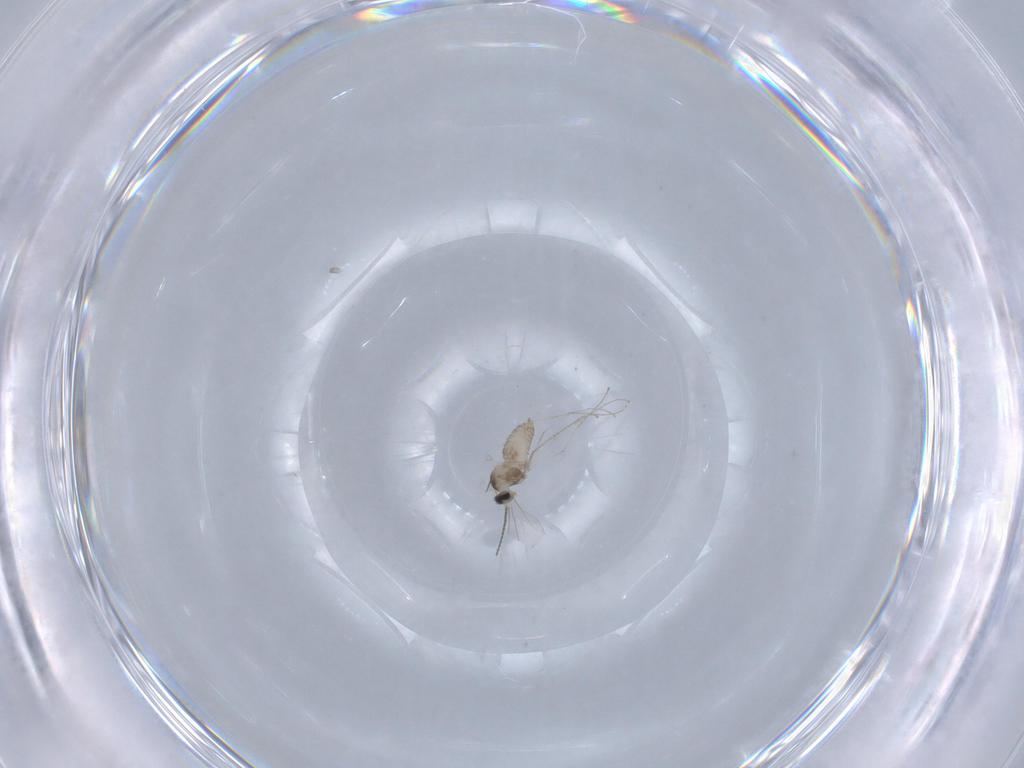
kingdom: Animalia
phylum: Arthropoda
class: Insecta
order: Diptera
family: Cecidomyiidae
